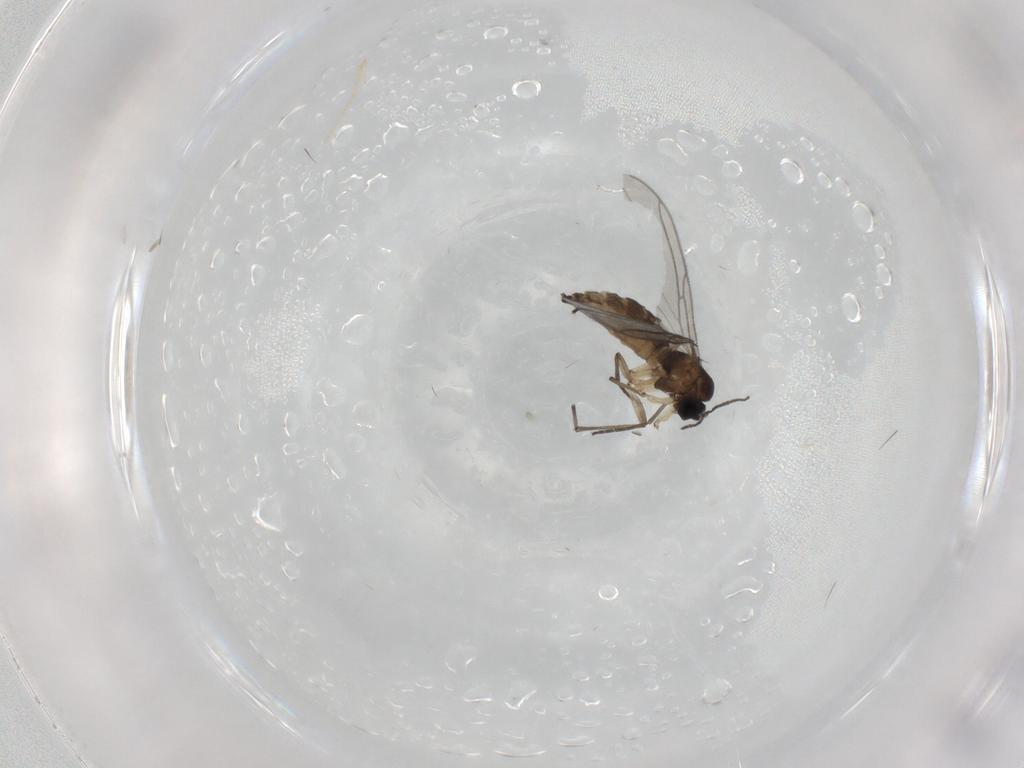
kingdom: Animalia
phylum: Arthropoda
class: Insecta
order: Diptera
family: Sciaridae
